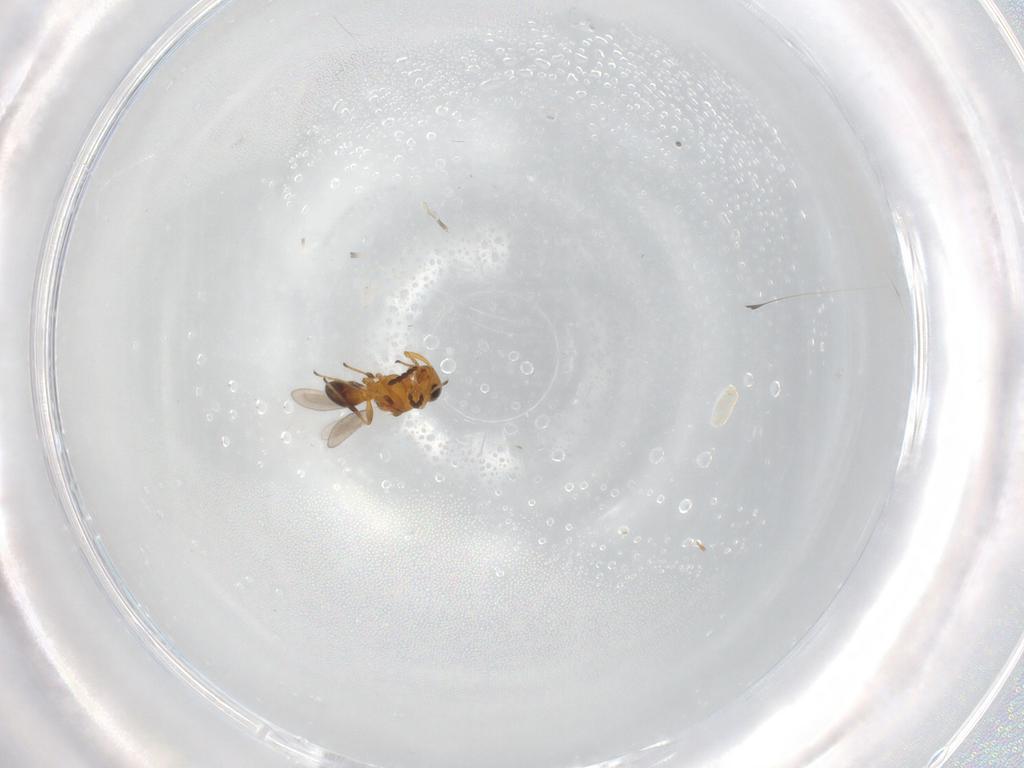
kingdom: Animalia
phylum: Arthropoda
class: Insecta
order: Hymenoptera
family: Platygastridae
